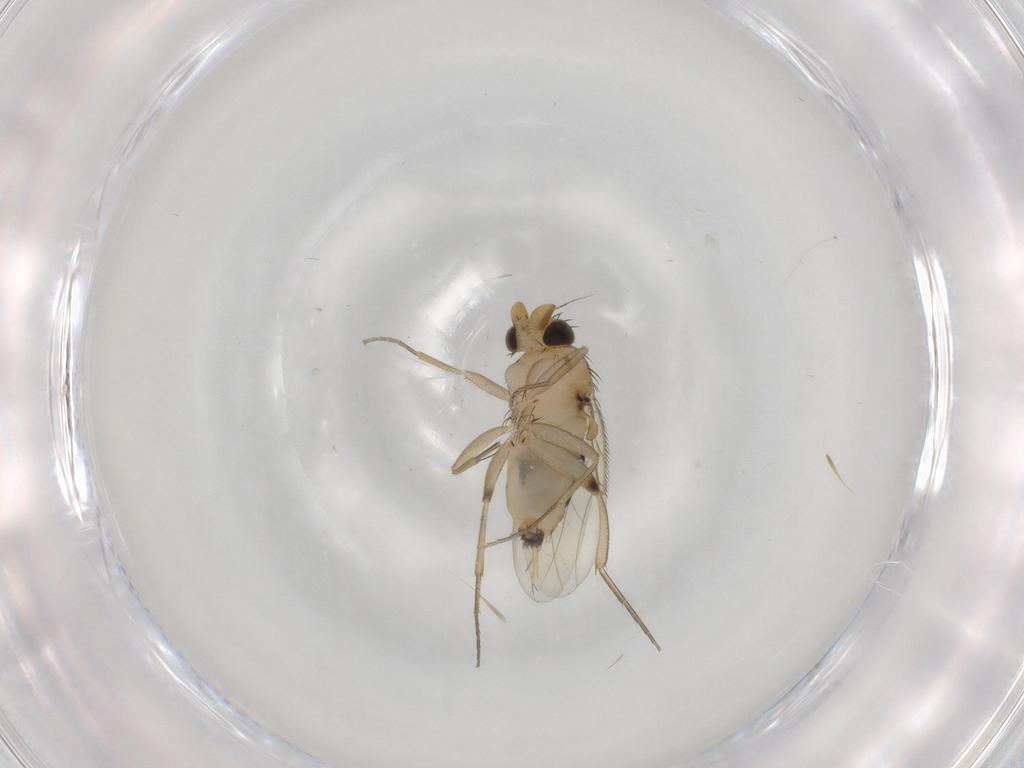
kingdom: Animalia
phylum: Arthropoda
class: Insecta
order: Diptera
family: Phoridae
